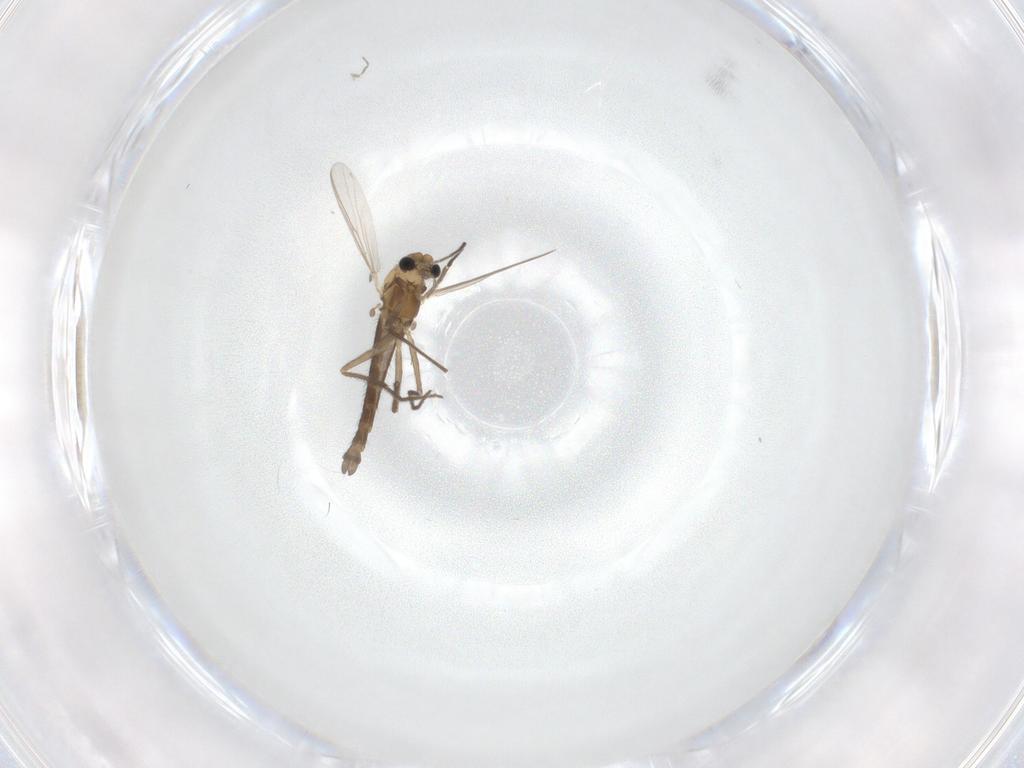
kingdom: Animalia
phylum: Arthropoda
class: Insecta
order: Diptera
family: Chironomidae
